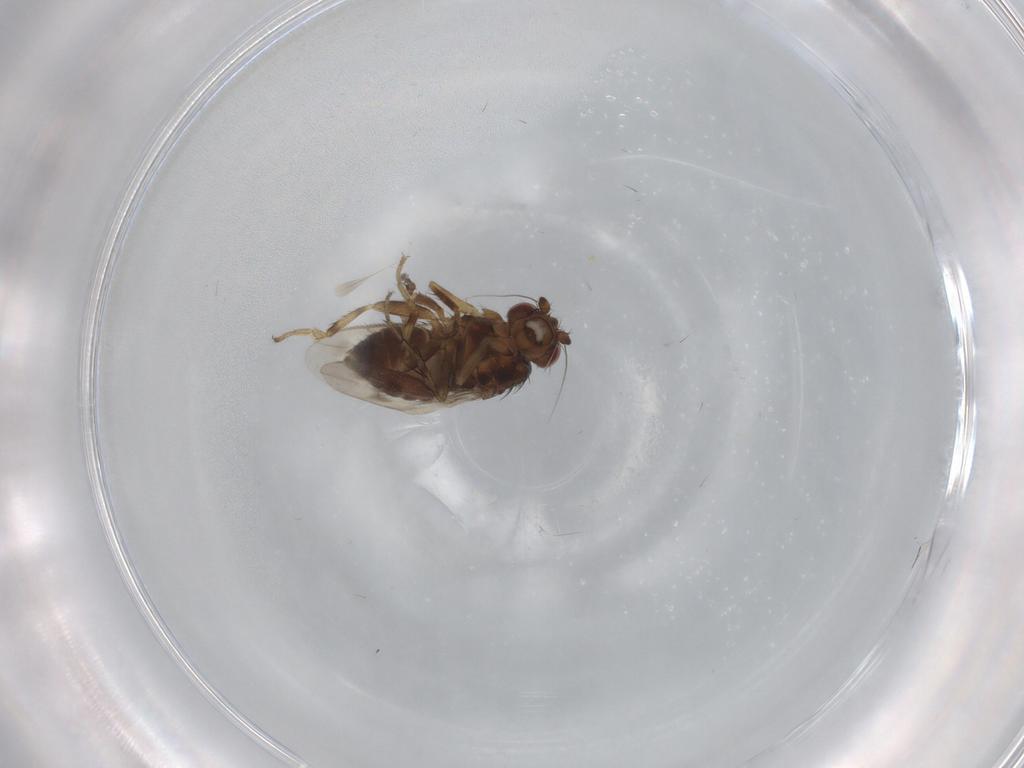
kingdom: Animalia
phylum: Arthropoda
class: Insecta
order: Diptera
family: Sphaeroceridae
